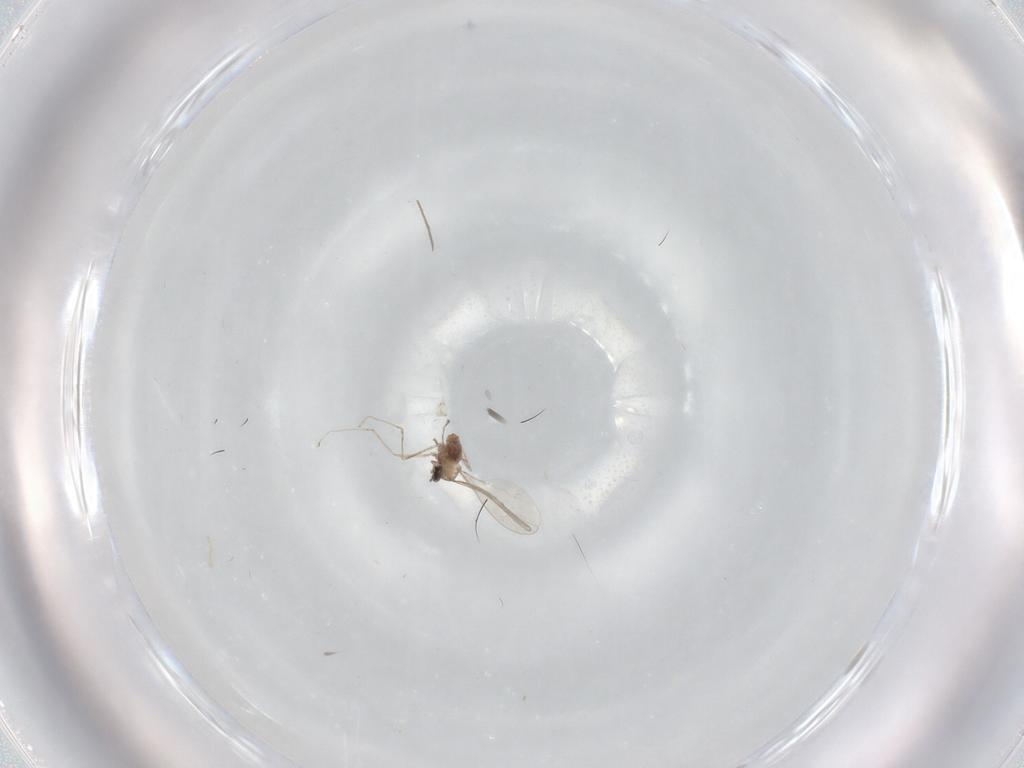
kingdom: Animalia
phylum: Arthropoda
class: Insecta
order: Diptera
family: Cecidomyiidae
